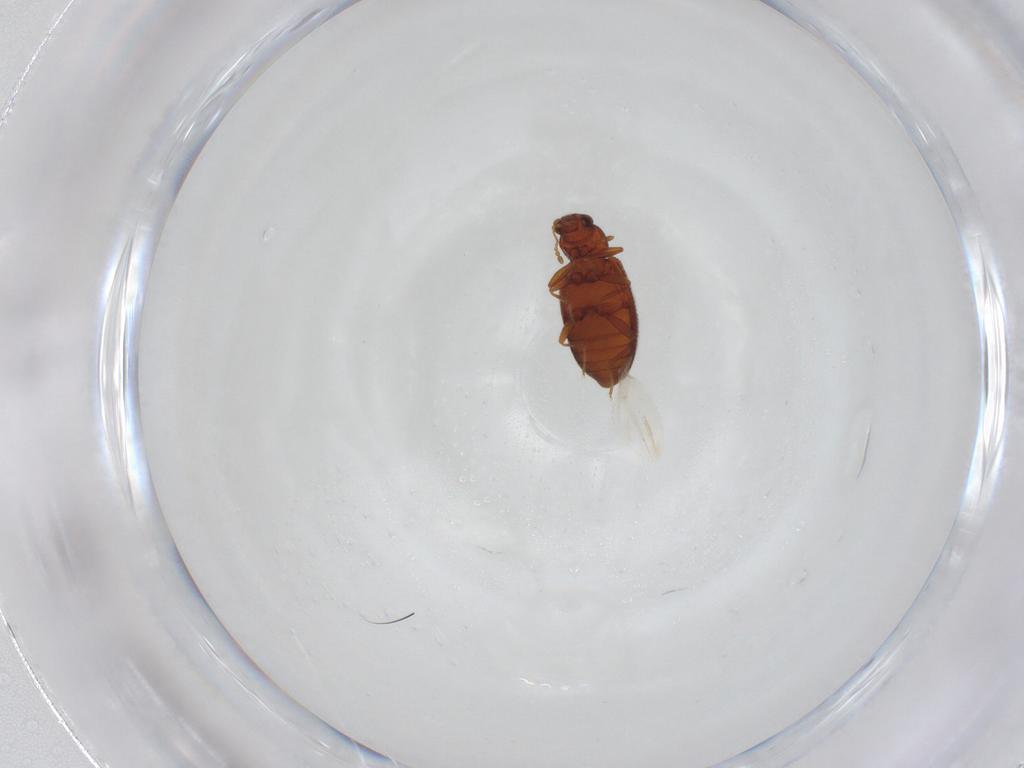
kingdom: Animalia
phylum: Arthropoda
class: Insecta
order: Coleoptera
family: Latridiidae
